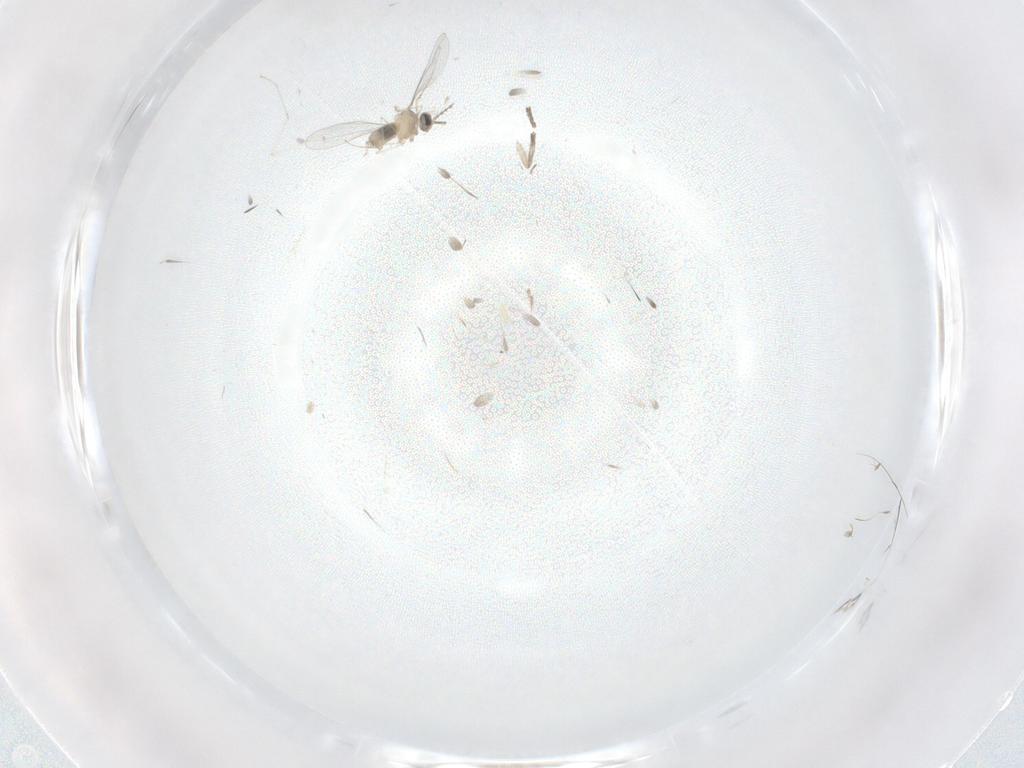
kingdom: Animalia
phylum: Arthropoda
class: Insecta
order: Diptera
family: Cecidomyiidae
